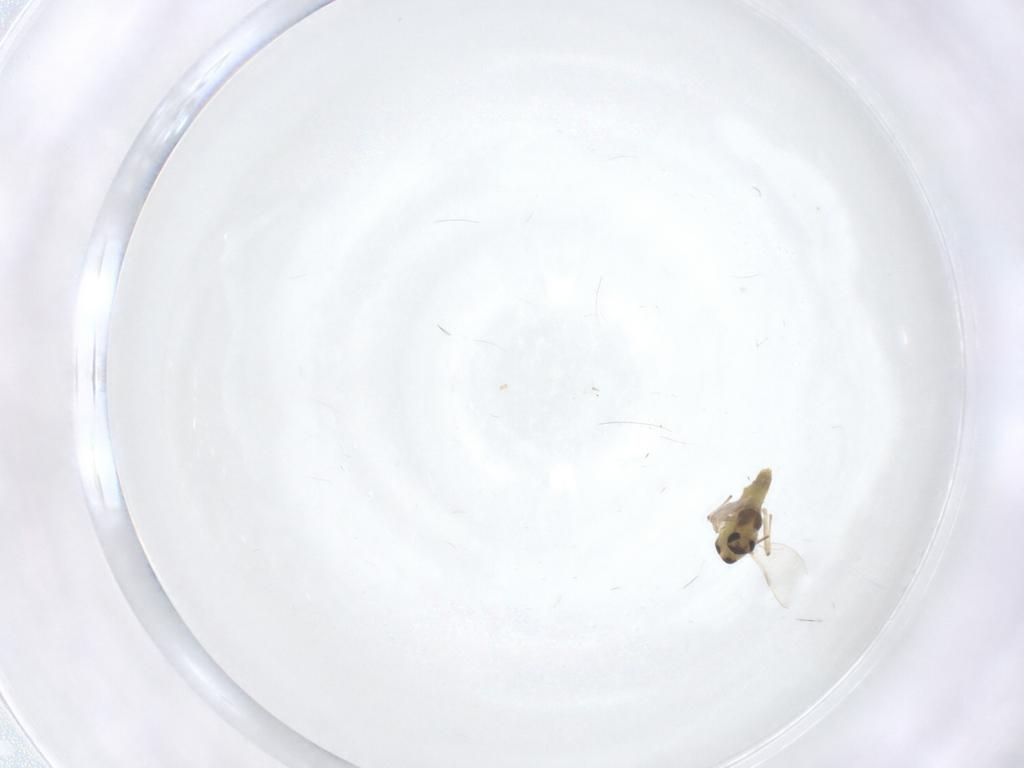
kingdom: Animalia
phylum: Arthropoda
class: Insecta
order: Diptera
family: Chironomidae
